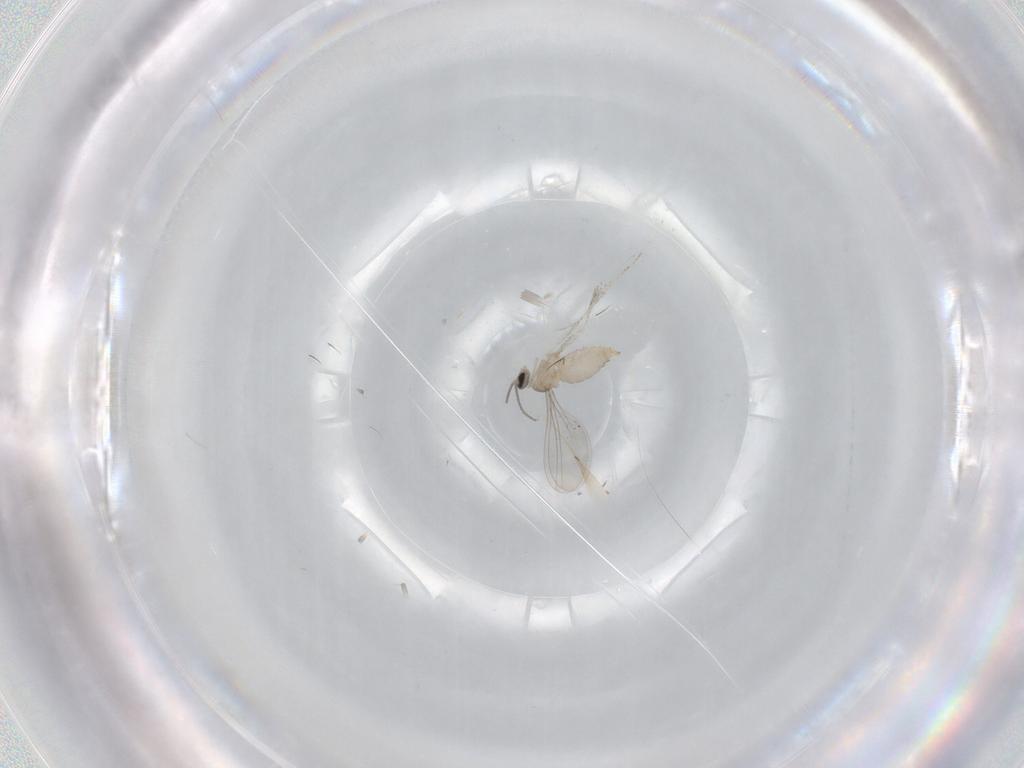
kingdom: Animalia
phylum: Arthropoda
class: Insecta
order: Diptera
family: Cecidomyiidae
